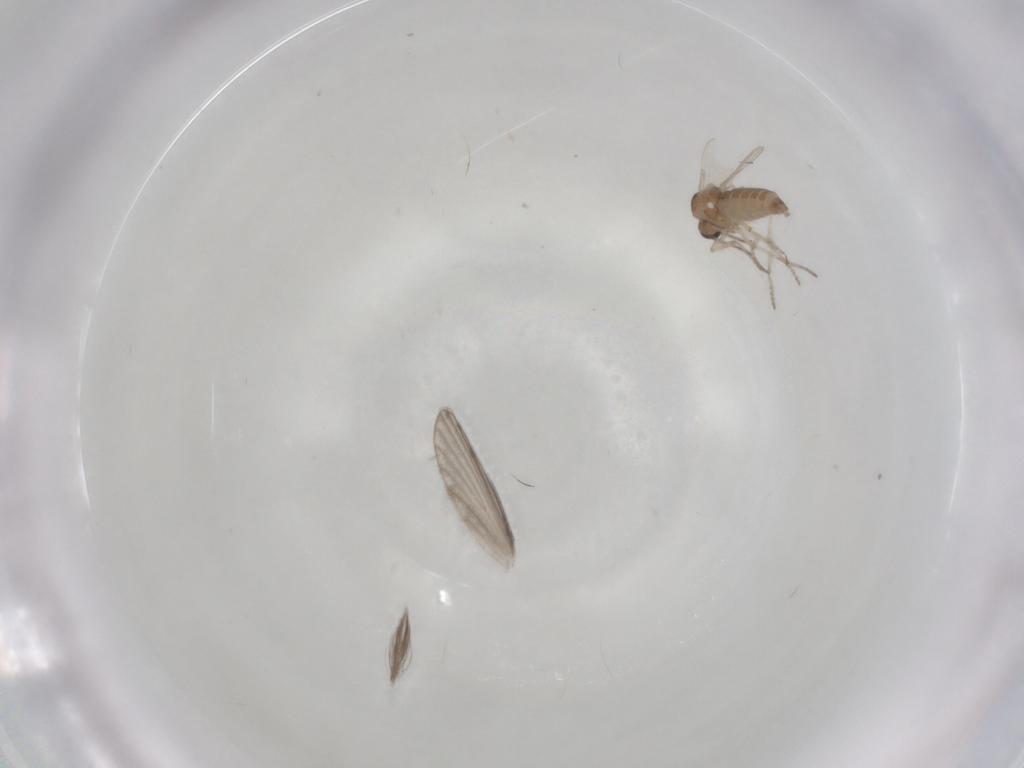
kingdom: Animalia
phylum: Arthropoda
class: Insecta
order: Diptera
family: Ceratopogonidae
